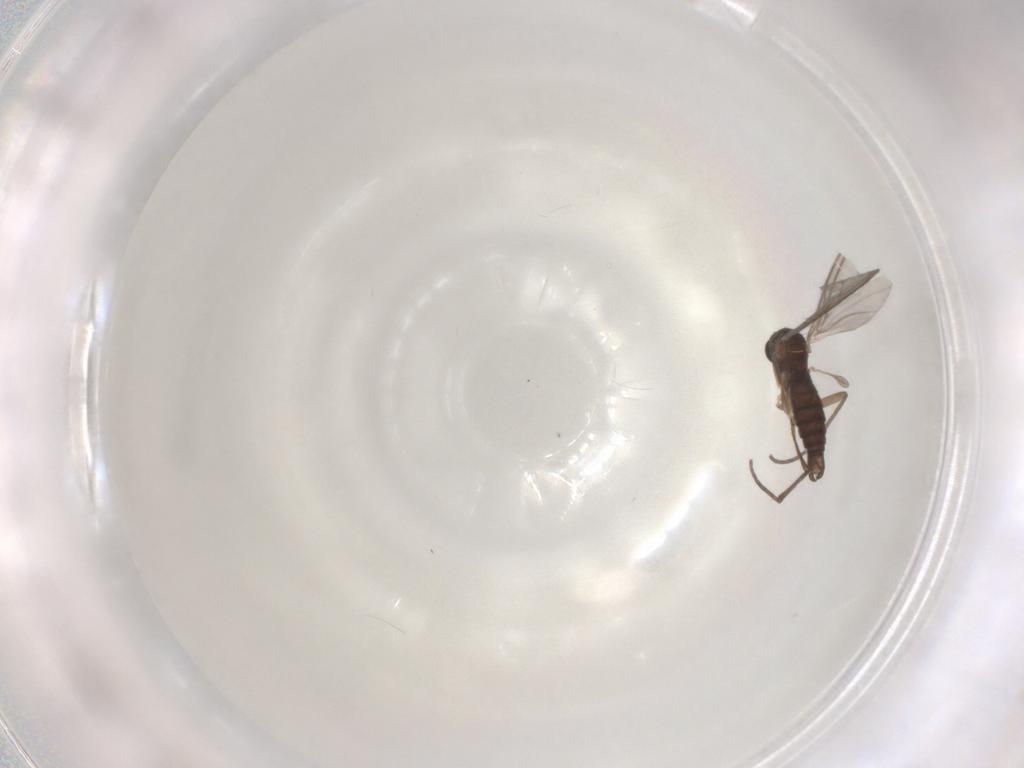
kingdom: Animalia
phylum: Arthropoda
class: Insecta
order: Diptera
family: Sciaridae
